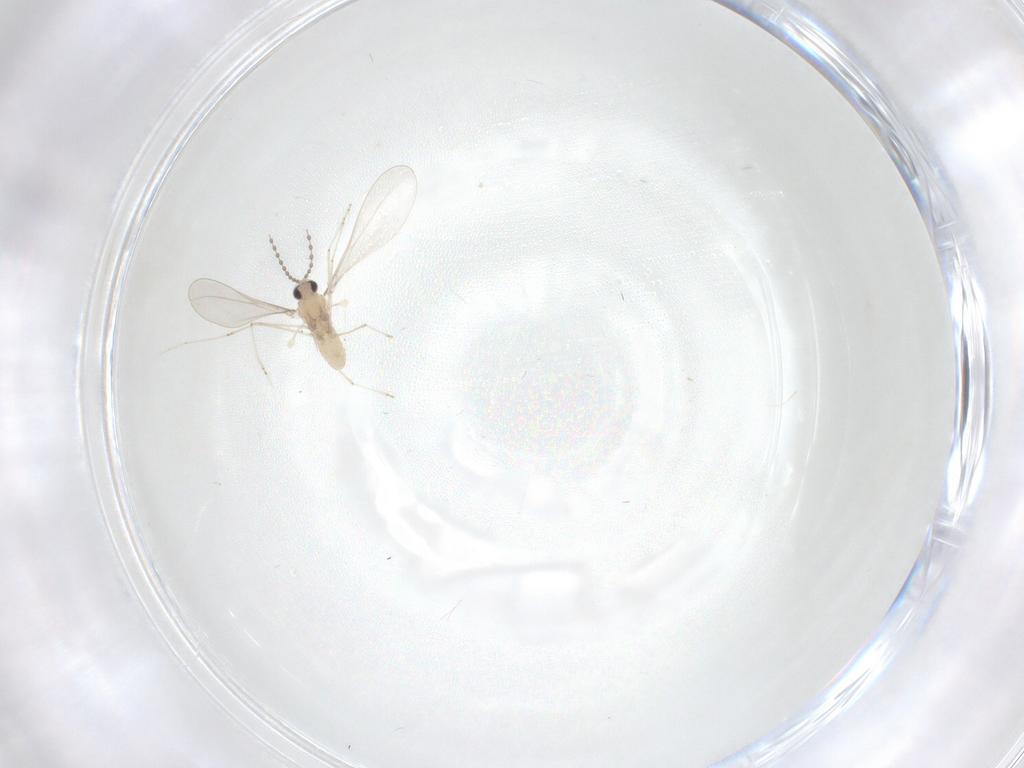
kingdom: Animalia
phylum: Arthropoda
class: Insecta
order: Diptera
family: Cecidomyiidae
